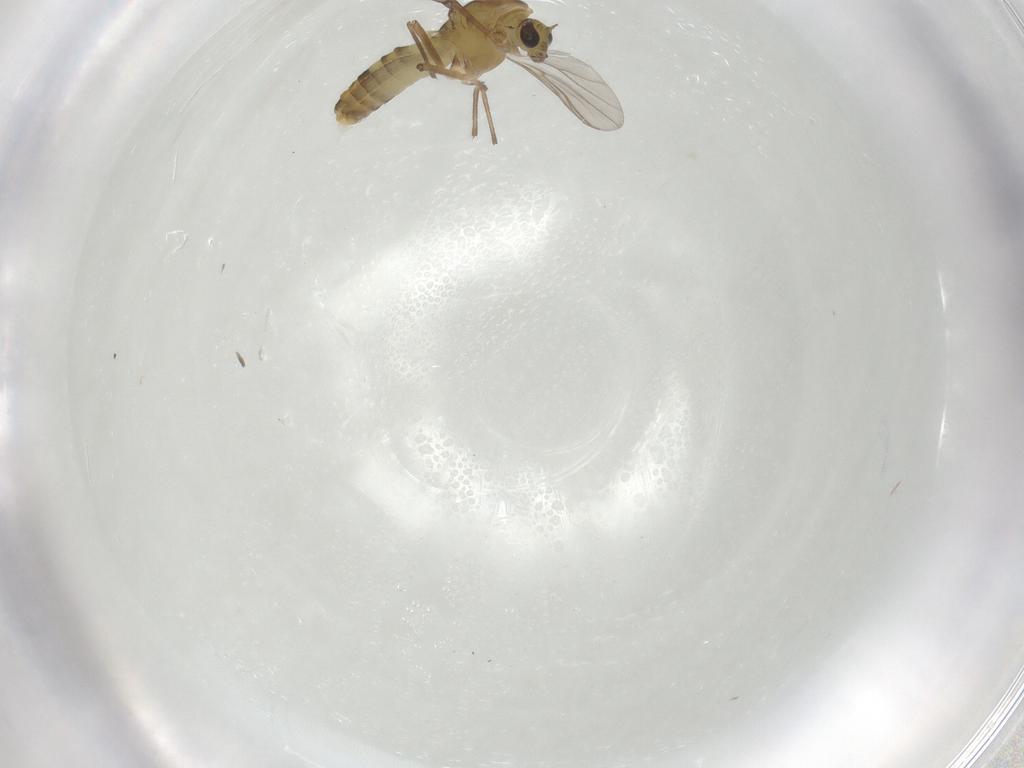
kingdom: Animalia
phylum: Arthropoda
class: Insecta
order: Diptera
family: Chironomidae
